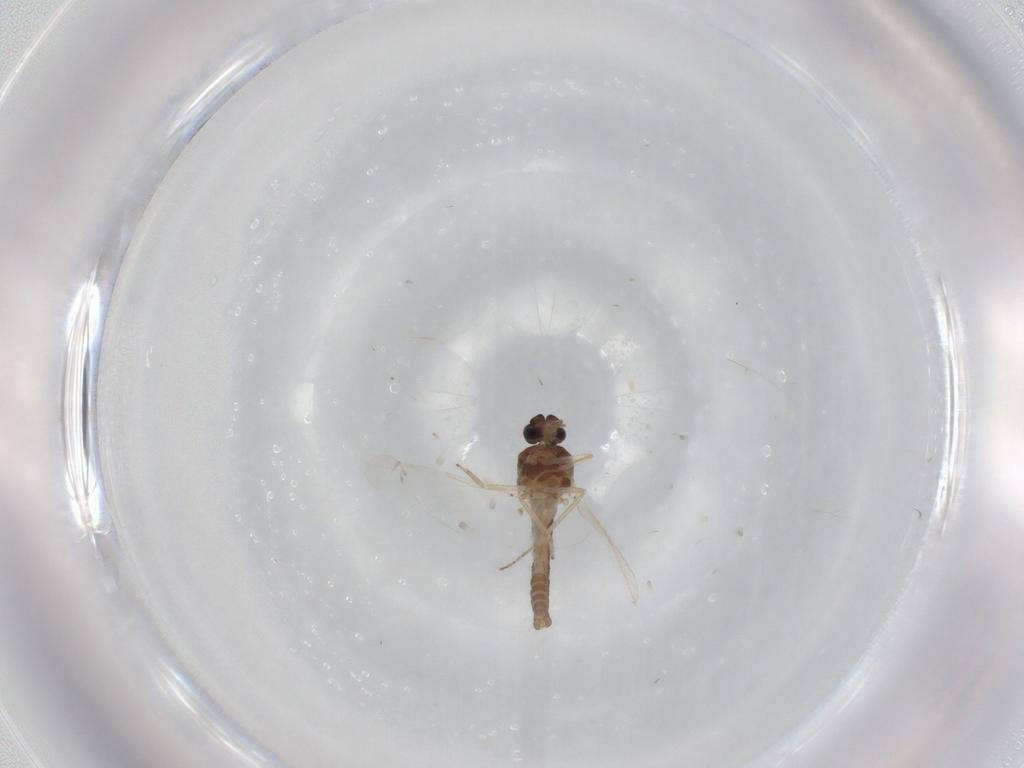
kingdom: Animalia
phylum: Arthropoda
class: Insecta
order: Diptera
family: Ceratopogonidae
